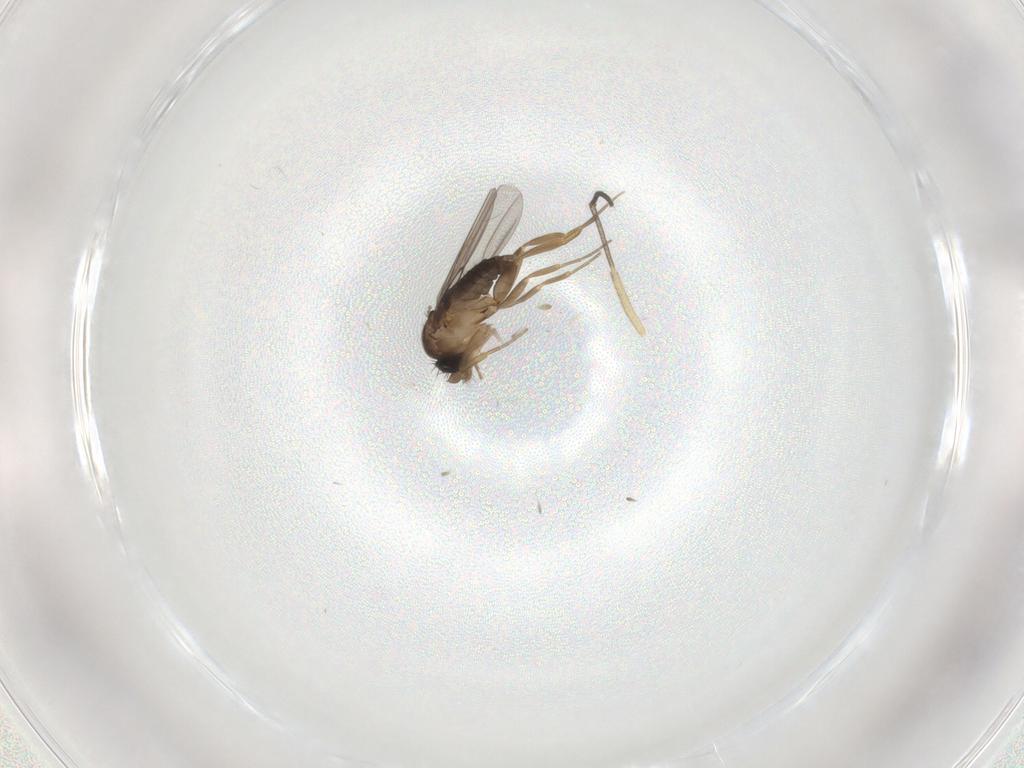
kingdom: Animalia
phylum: Arthropoda
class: Insecta
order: Diptera
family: Cecidomyiidae
